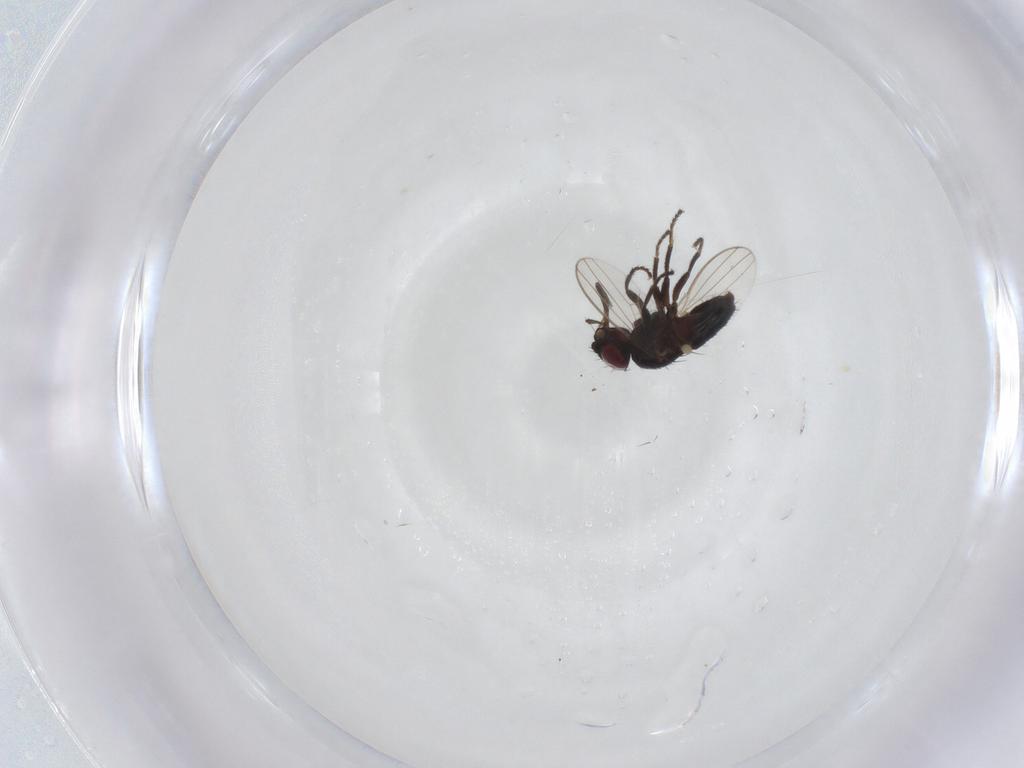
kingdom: Animalia
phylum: Arthropoda
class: Insecta
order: Diptera
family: Milichiidae
